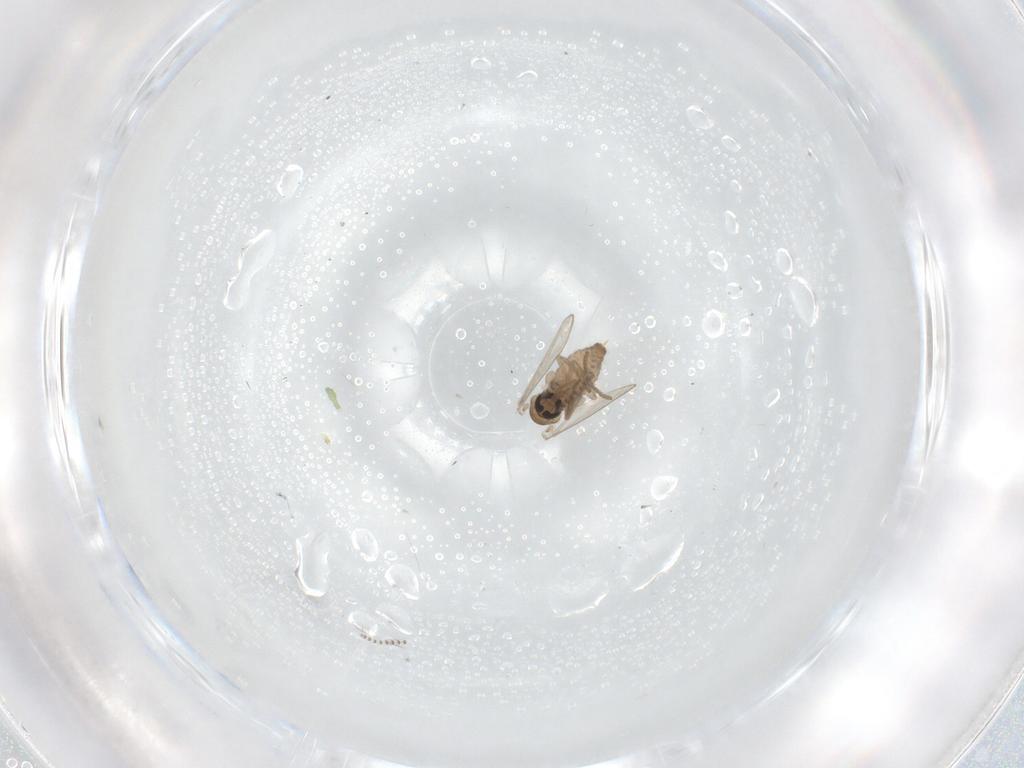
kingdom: Animalia
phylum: Arthropoda
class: Insecta
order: Diptera
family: Psychodidae
